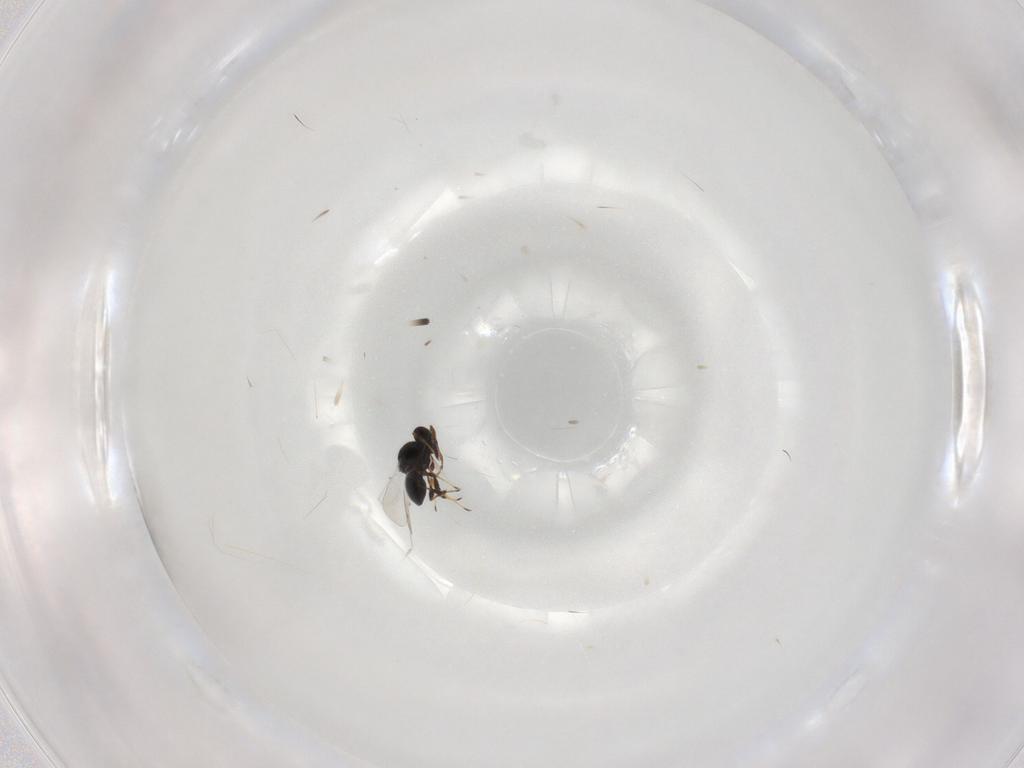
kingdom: Animalia
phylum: Arthropoda
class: Insecta
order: Hymenoptera
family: Platygastridae
